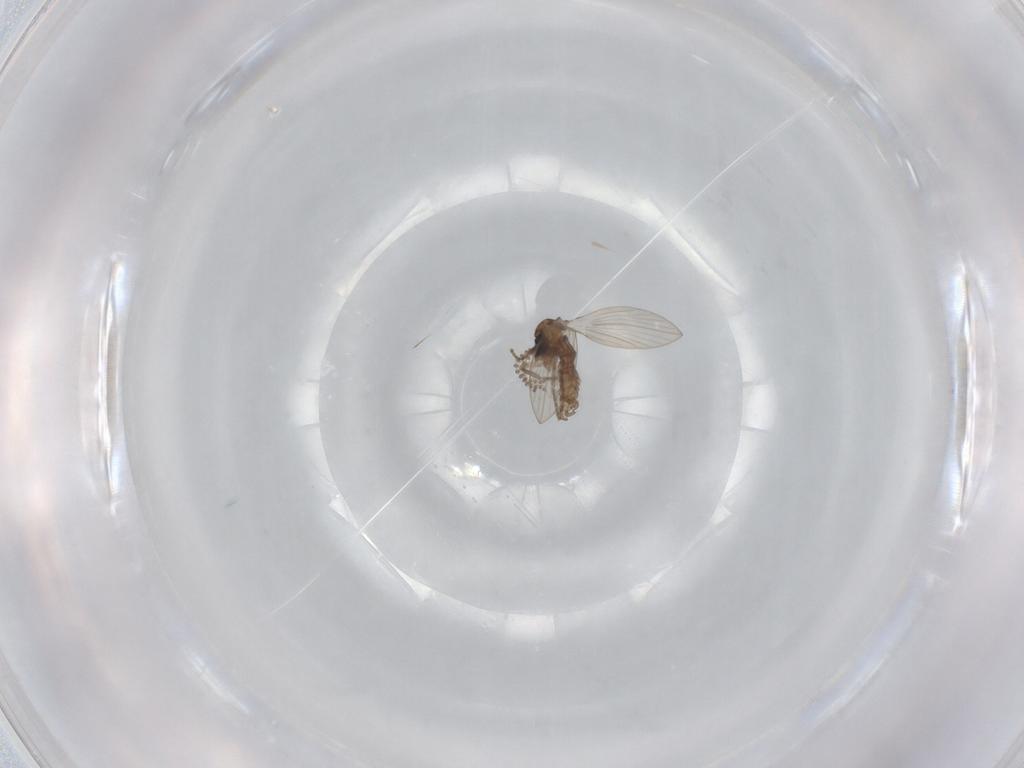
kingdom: Animalia
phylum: Arthropoda
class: Insecta
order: Diptera
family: Psychodidae
